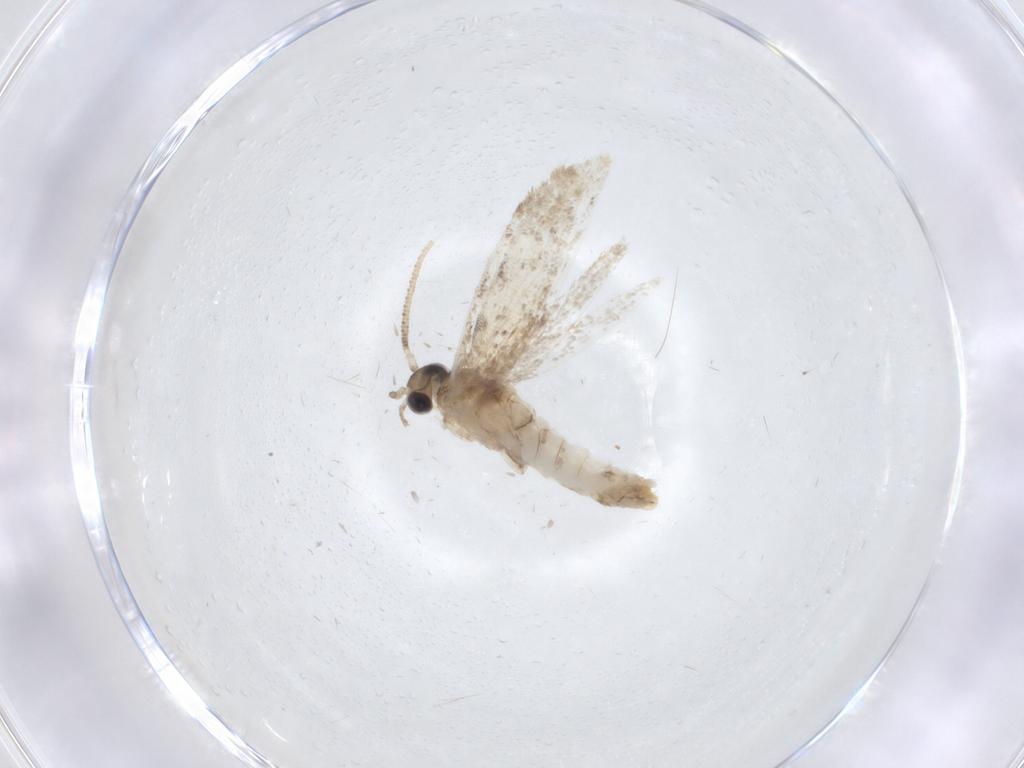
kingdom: Animalia
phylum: Arthropoda
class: Insecta
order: Lepidoptera
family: Dryadaulidae
